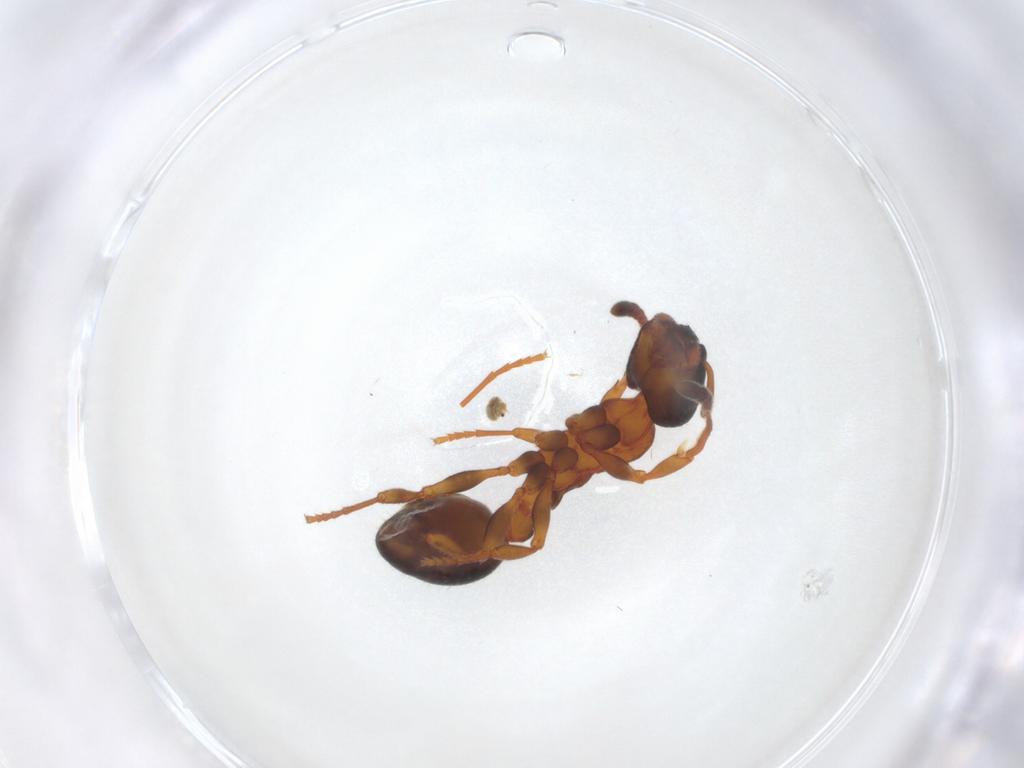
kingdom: Animalia
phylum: Arthropoda
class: Insecta
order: Hymenoptera
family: Formicidae
